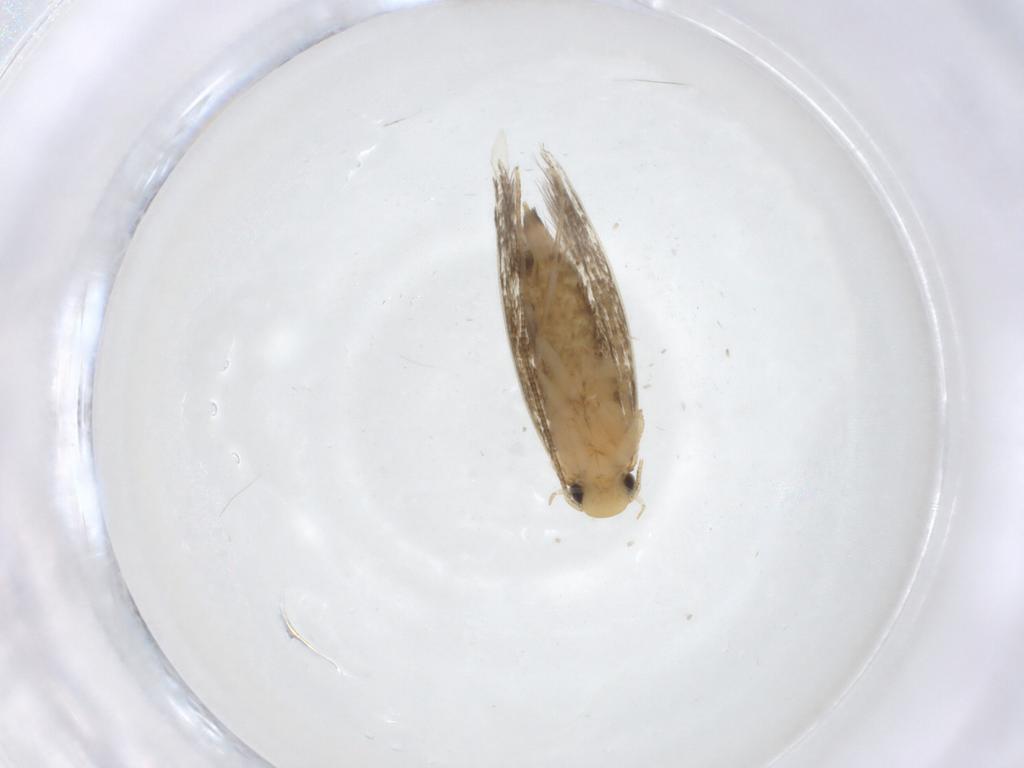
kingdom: Animalia
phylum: Arthropoda
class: Insecta
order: Lepidoptera
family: Tineidae
